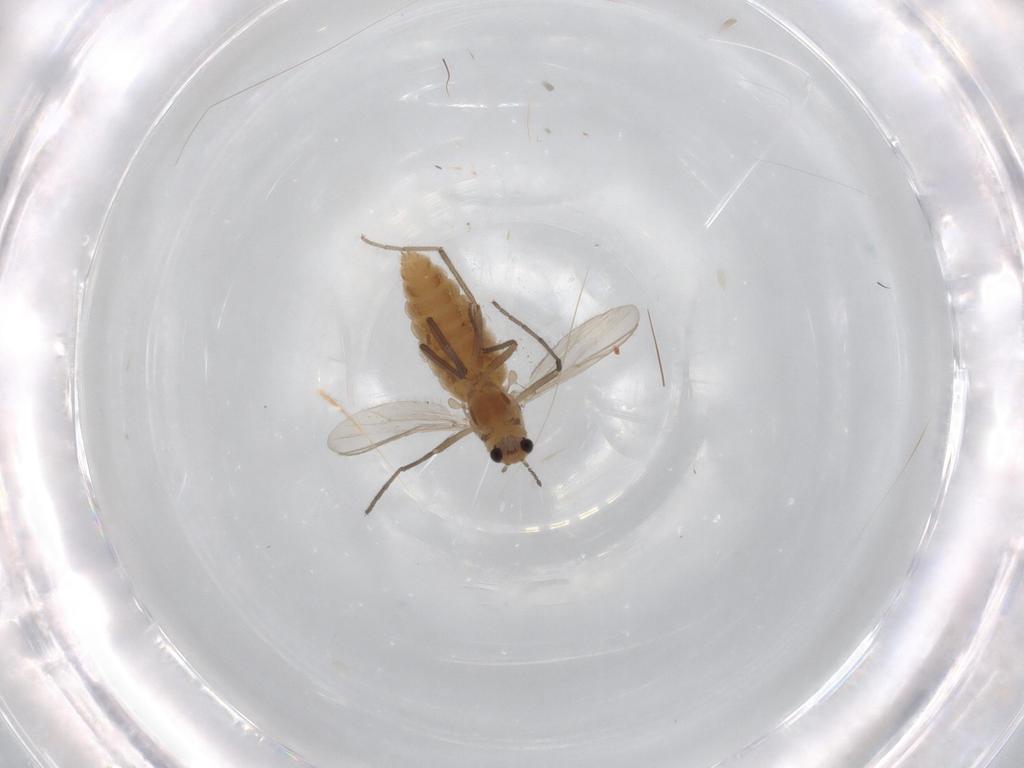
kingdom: Animalia
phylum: Arthropoda
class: Insecta
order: Diptera
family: Chironomidae
